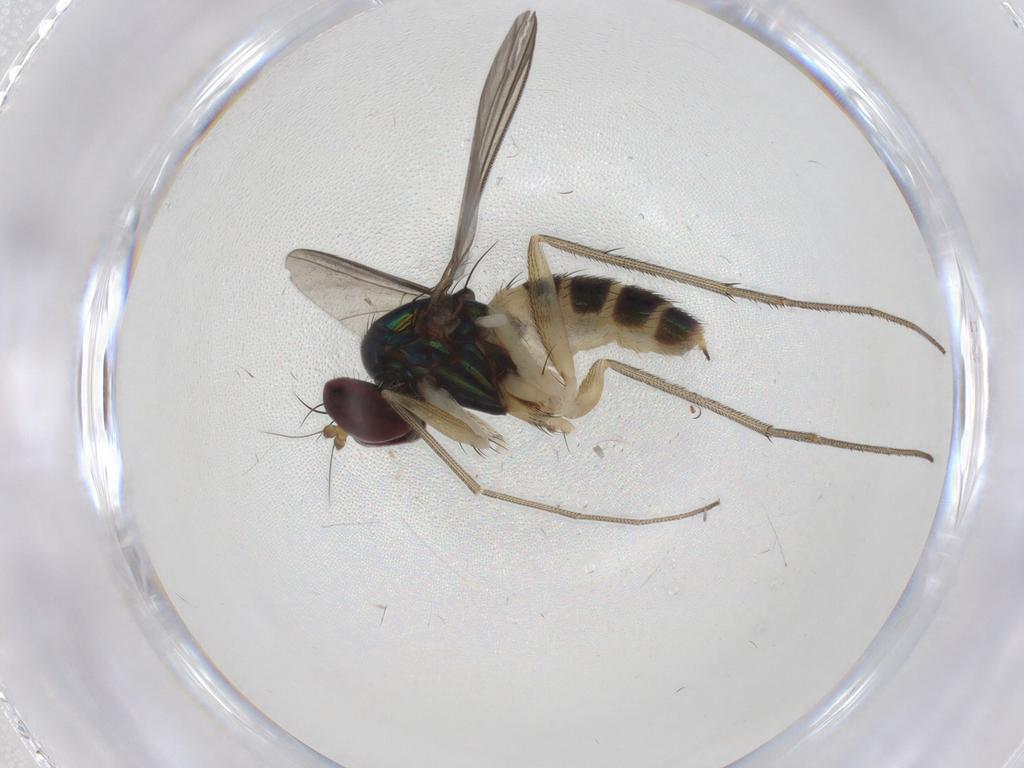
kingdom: Animalia
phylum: Arthropoda
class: Insecta
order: Diptera
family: Dolichopodidae
